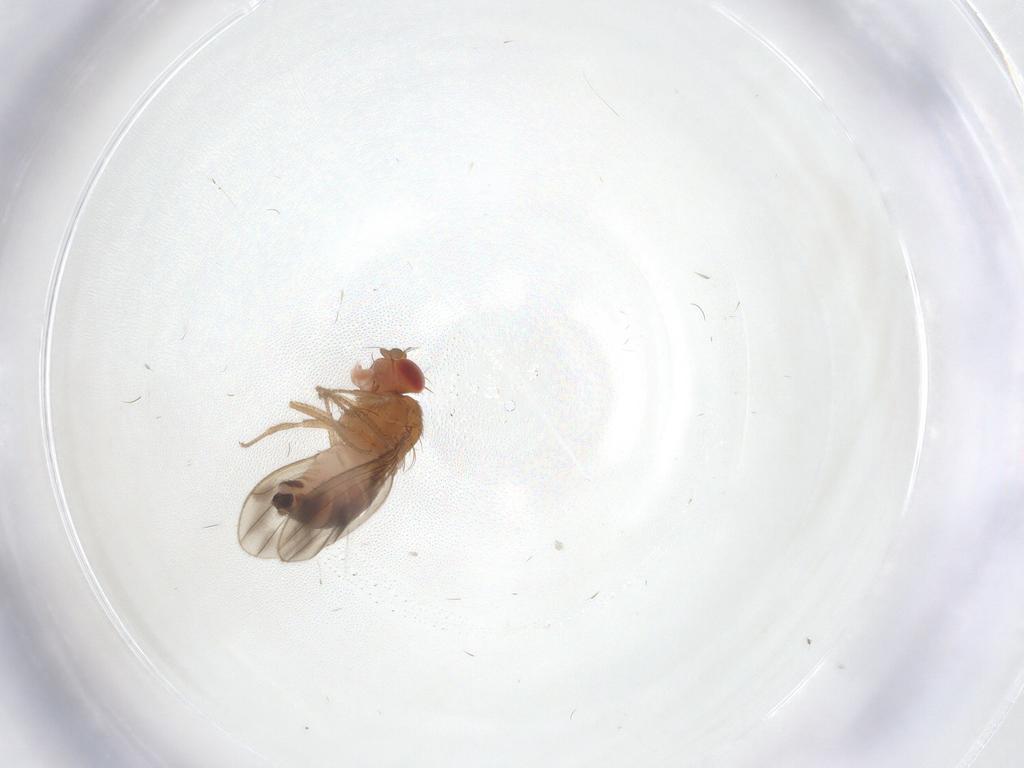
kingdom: Animalia
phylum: Arthropoda
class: Insecta
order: Diptera
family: Drosophilidae
